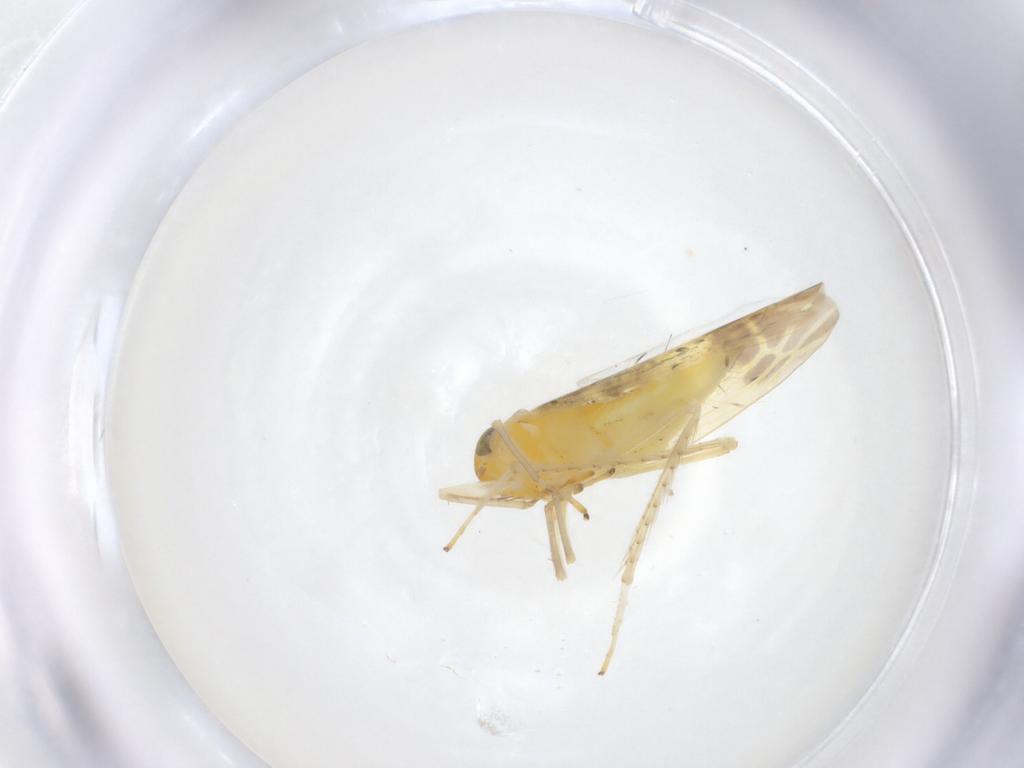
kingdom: Animalia
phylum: Arthropoda
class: Insecta
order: Hemiptera
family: Cicadellidae
